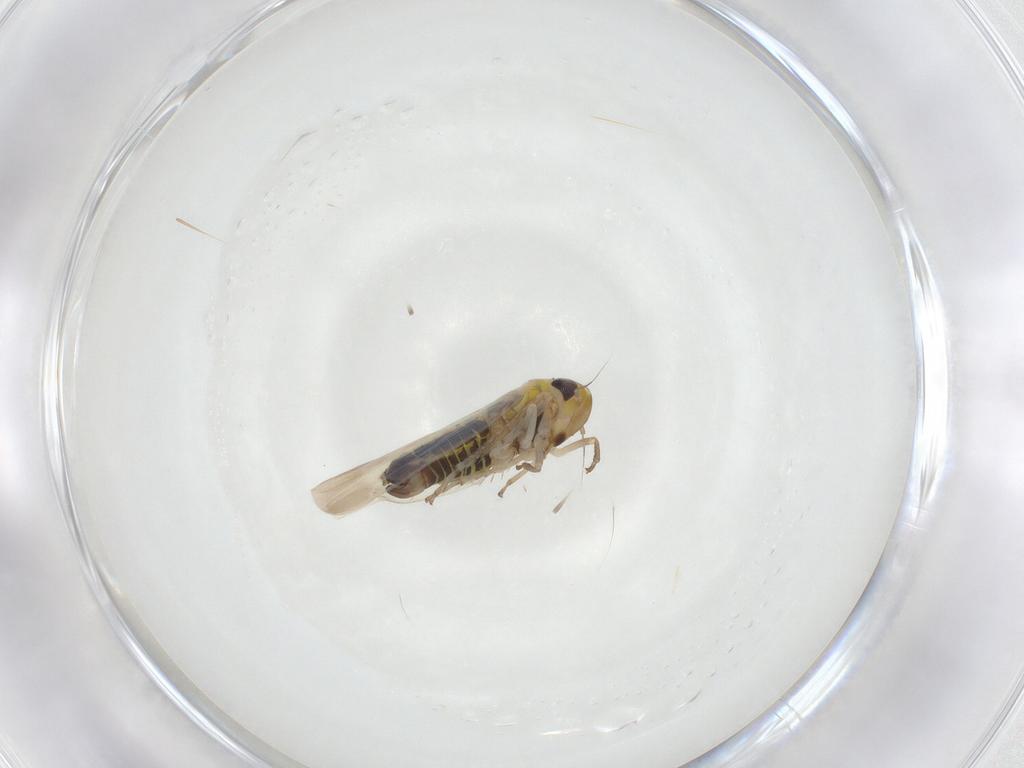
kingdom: Animalia
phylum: Arthropoda
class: Insecta
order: Hemiptera
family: Cicadellidae
